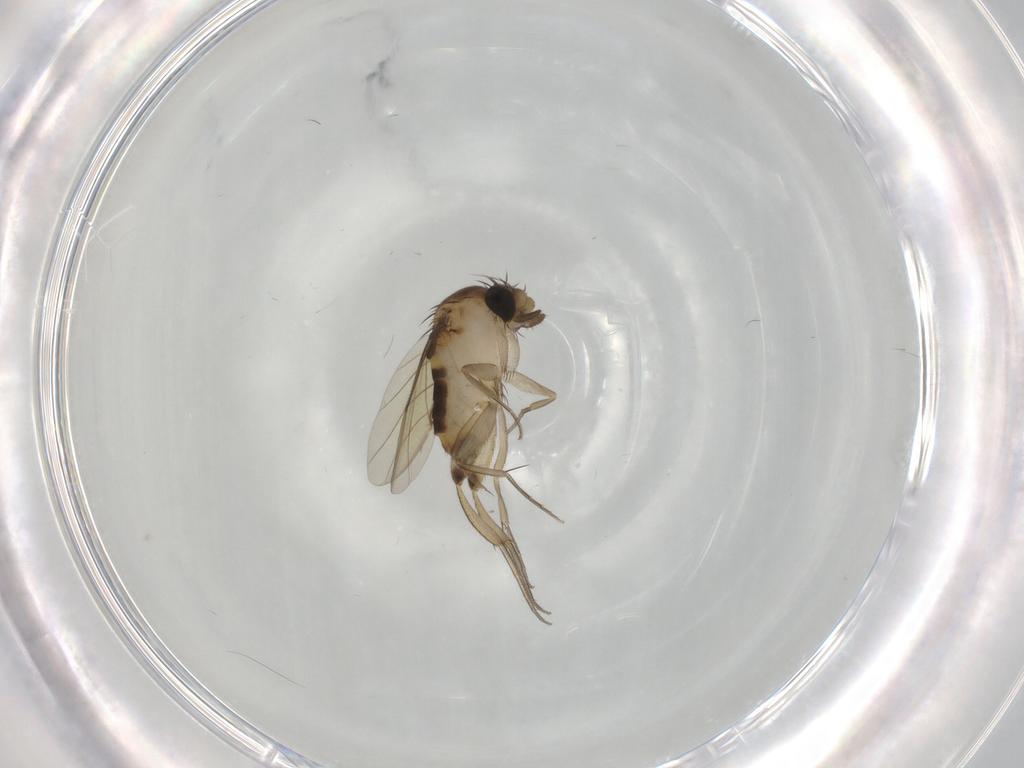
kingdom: Animalia
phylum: Arthropoda
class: Insecta
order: Diptera
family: Phoridae
